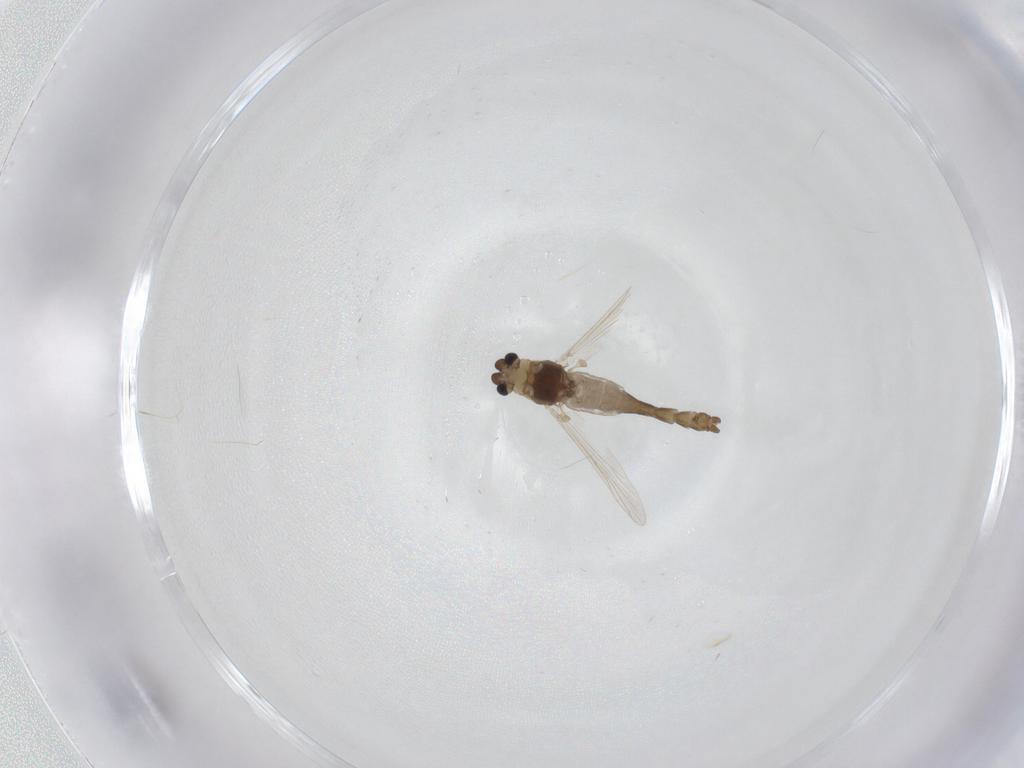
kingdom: Animalia
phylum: Arthropoda
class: Insecta
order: Diptera
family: Chironomidae
